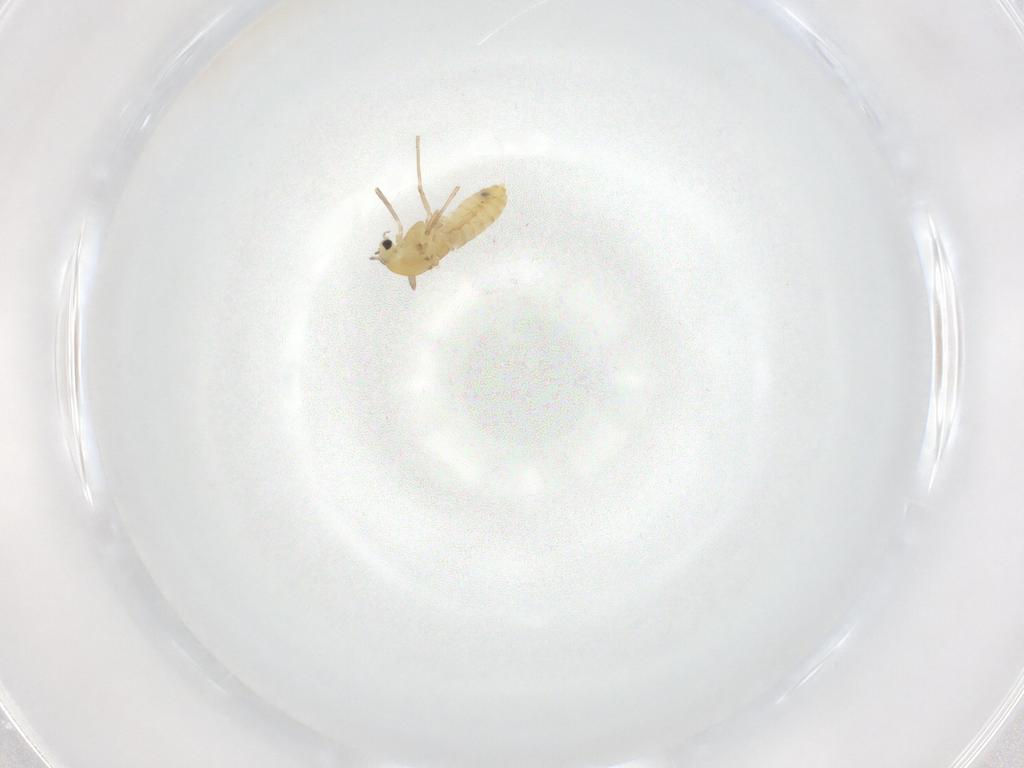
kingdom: Animalia
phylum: Arthropoda
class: Insecta
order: Diptera
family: Chironomidae
